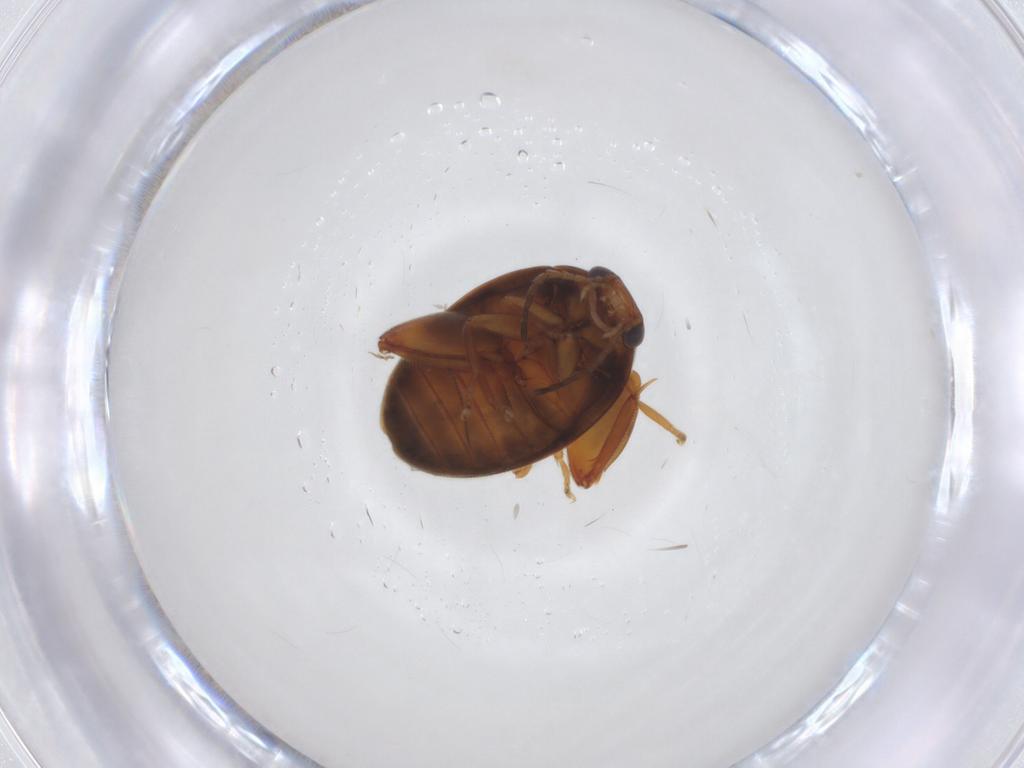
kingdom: Animalia
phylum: Arthropoda
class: Insecta
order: Coleoptera
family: Scirtidae
